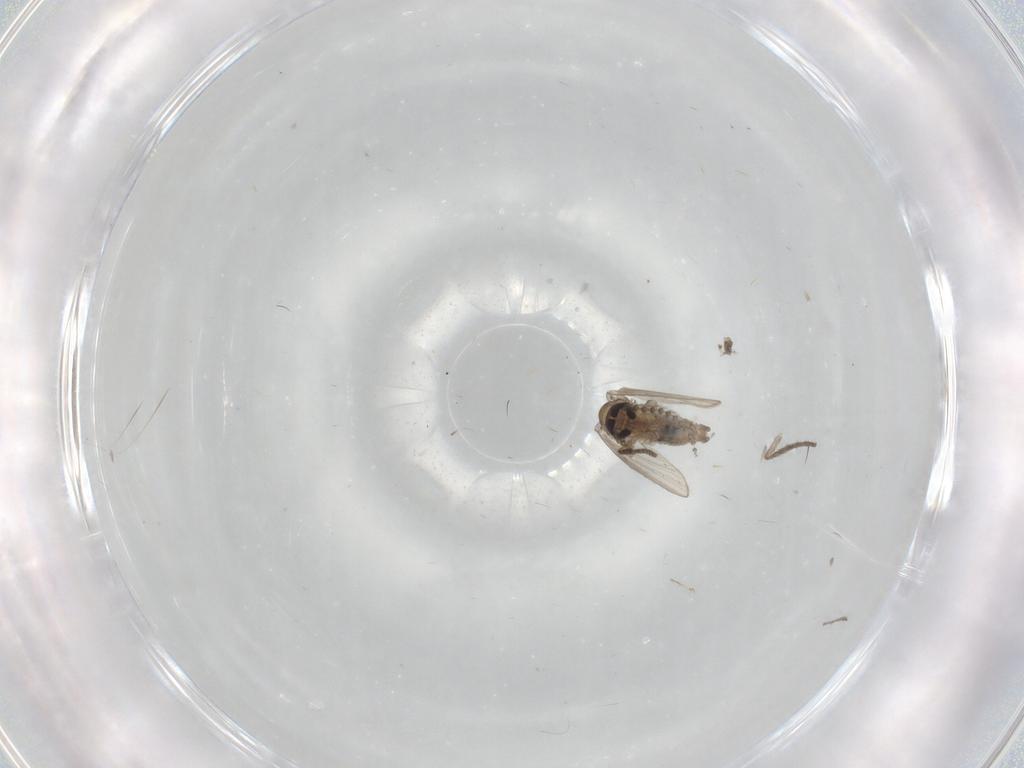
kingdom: Animalia
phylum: Arthropoda
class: Insecta
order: Diptera
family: Psychodidae
